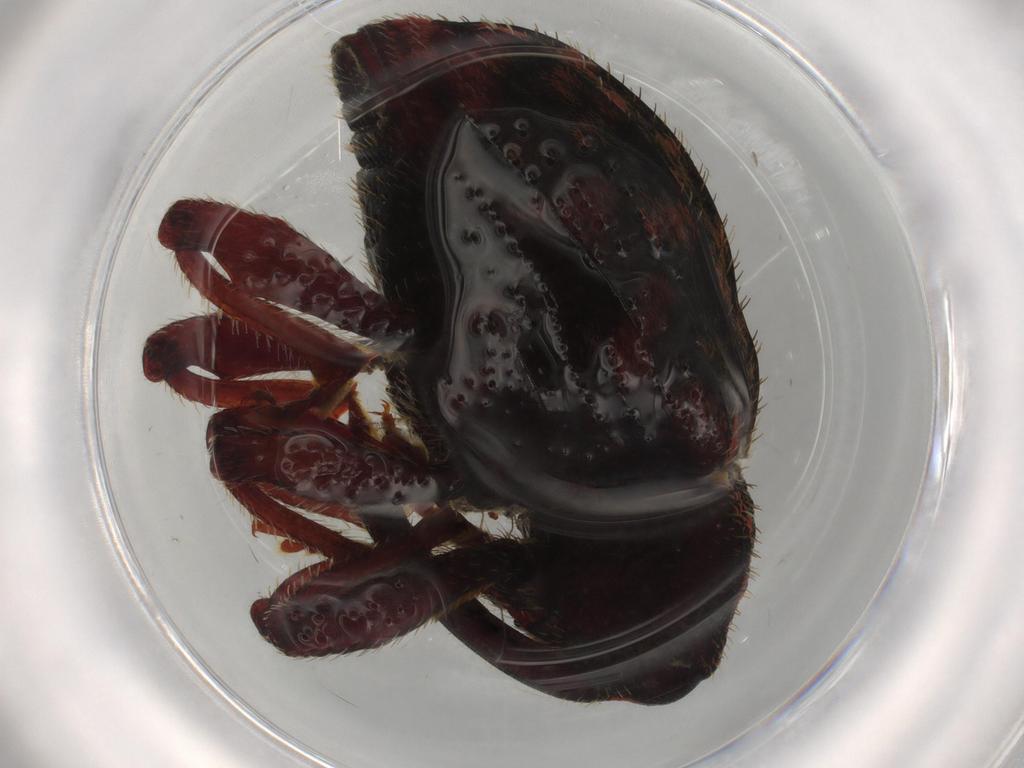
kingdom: Animalia
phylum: Arthropoda
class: Insecta
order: Coleoptera
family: Curculionidae
